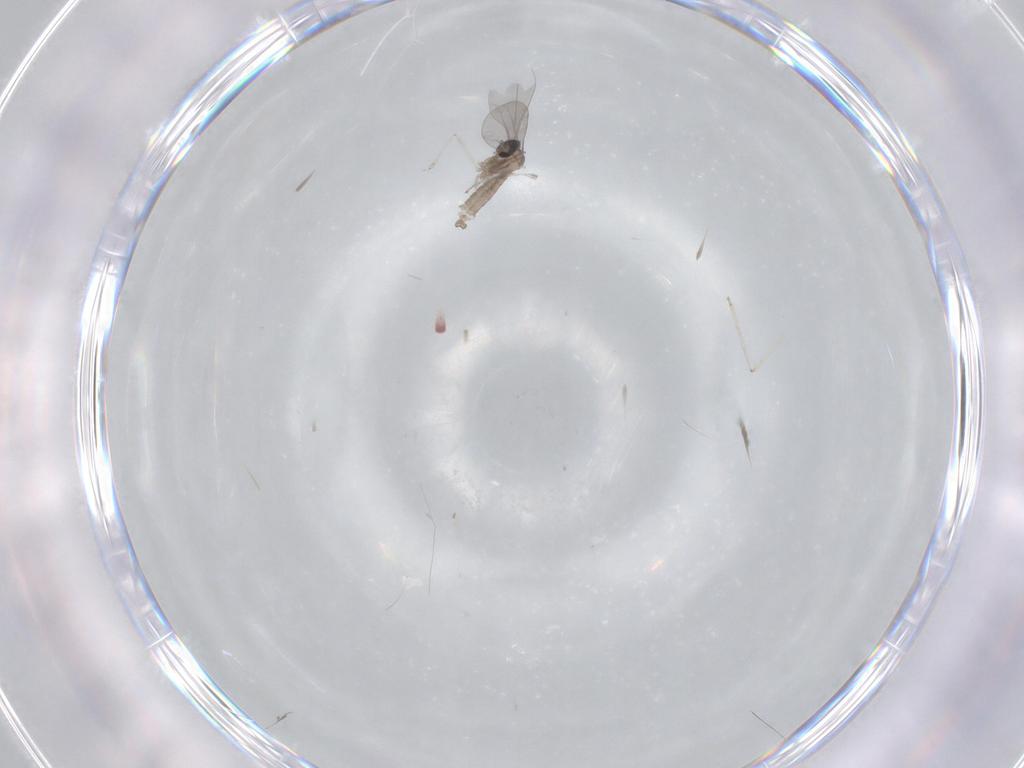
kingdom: Animalia
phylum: Arthropoda
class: Insecta
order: Diptera
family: Cecidomyiidae
